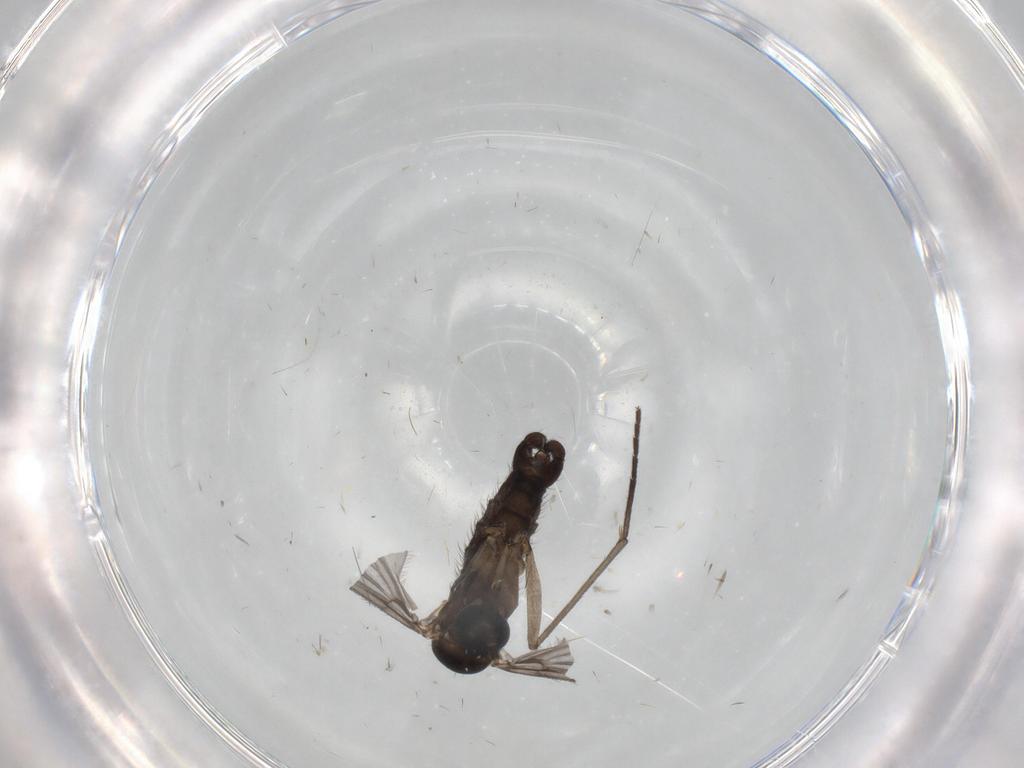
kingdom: Animalia
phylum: Arthropoda
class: Insecta
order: Diptera
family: Sciaridae
